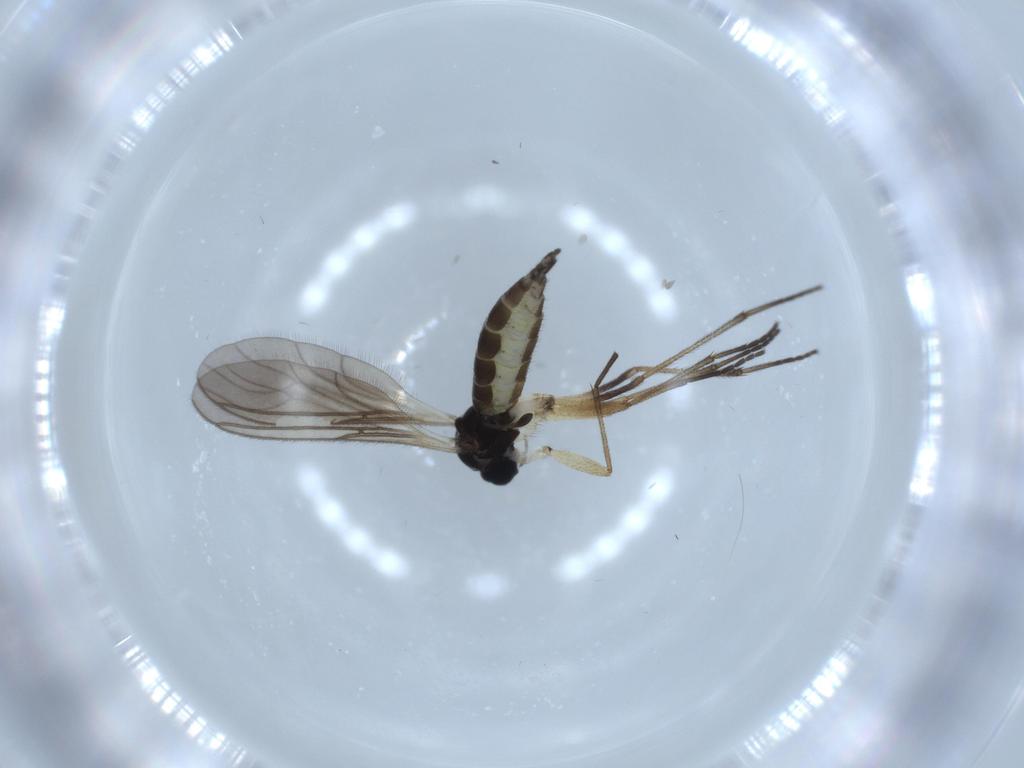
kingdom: Animalia
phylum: Arthropoda
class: Insecta
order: Diptera
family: Sciaridae
